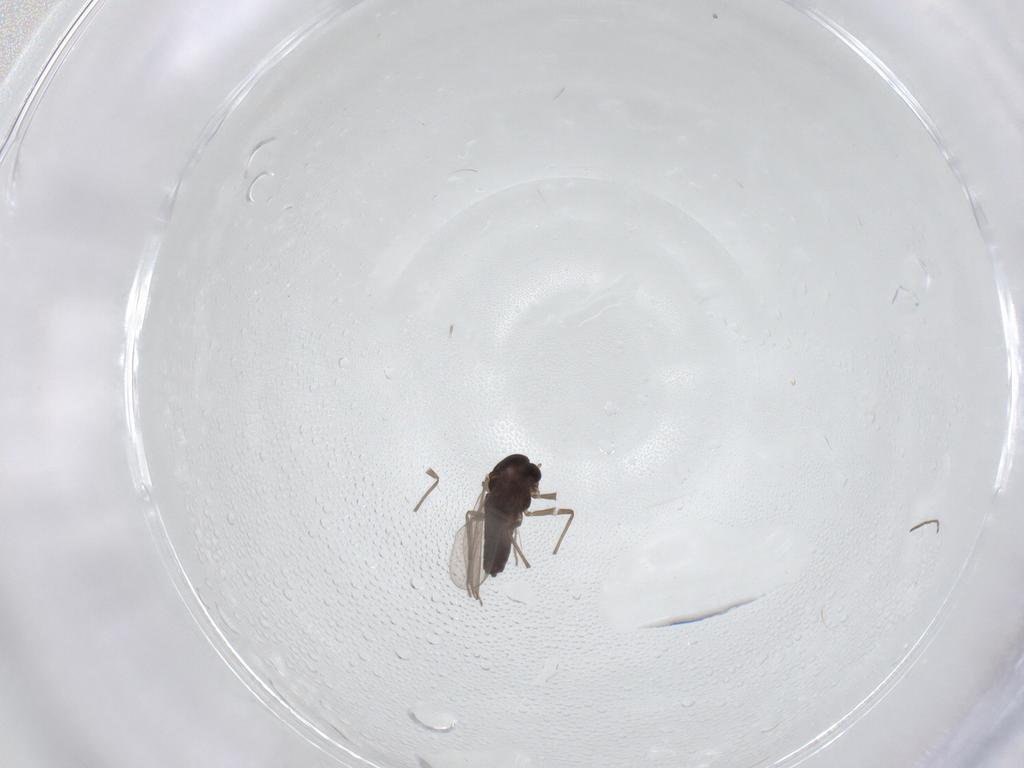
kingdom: Animalia
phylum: Arthropoda
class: Insecta
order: Diptera
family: Chironomidae
